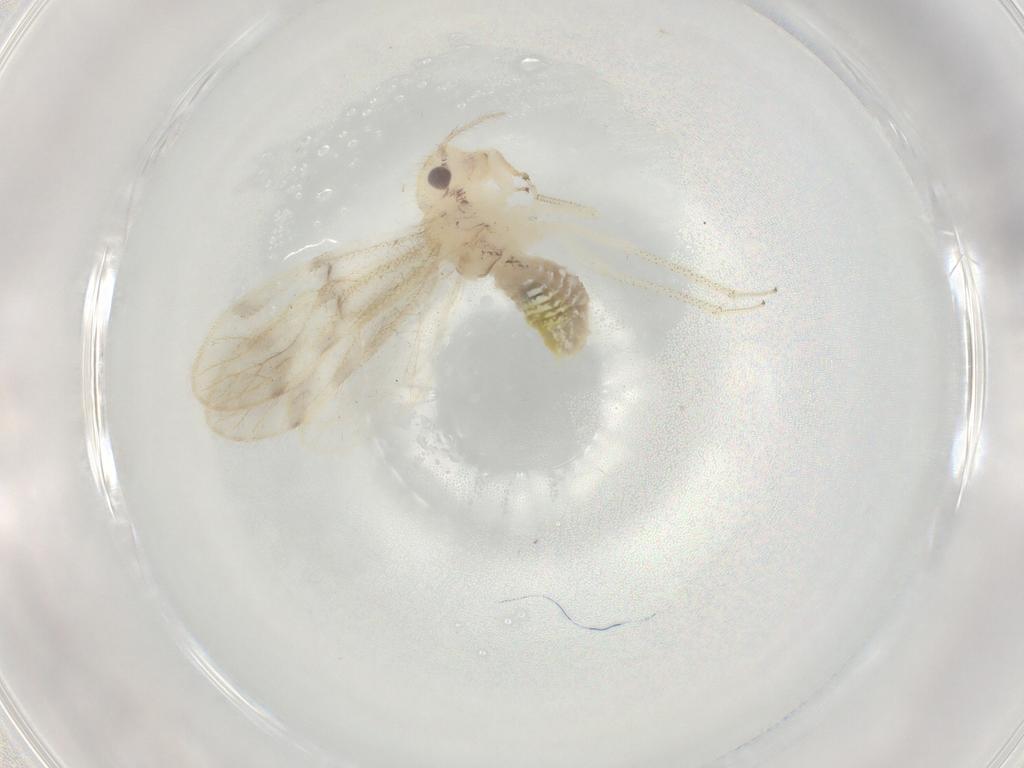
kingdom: Animalia
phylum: Arthropoda
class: Insecta
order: Psocodea
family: Pseudocaeciliidae
